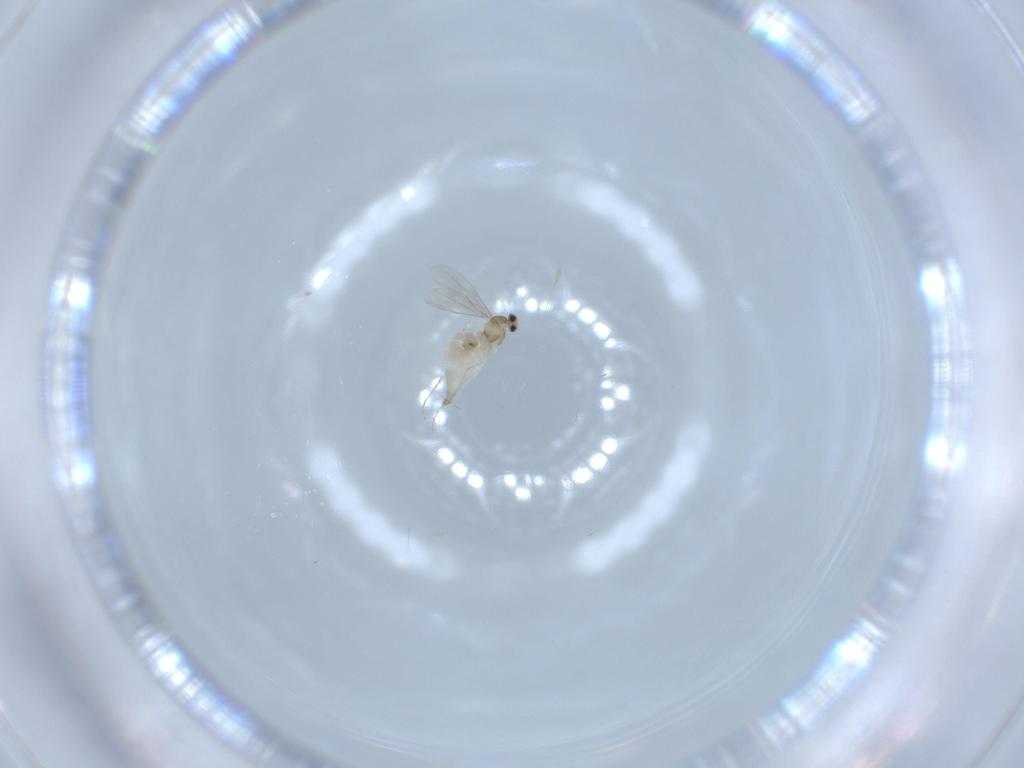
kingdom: Animalia
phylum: Arthropoda
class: Insecta
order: Diptera
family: Cecidomyiidae
